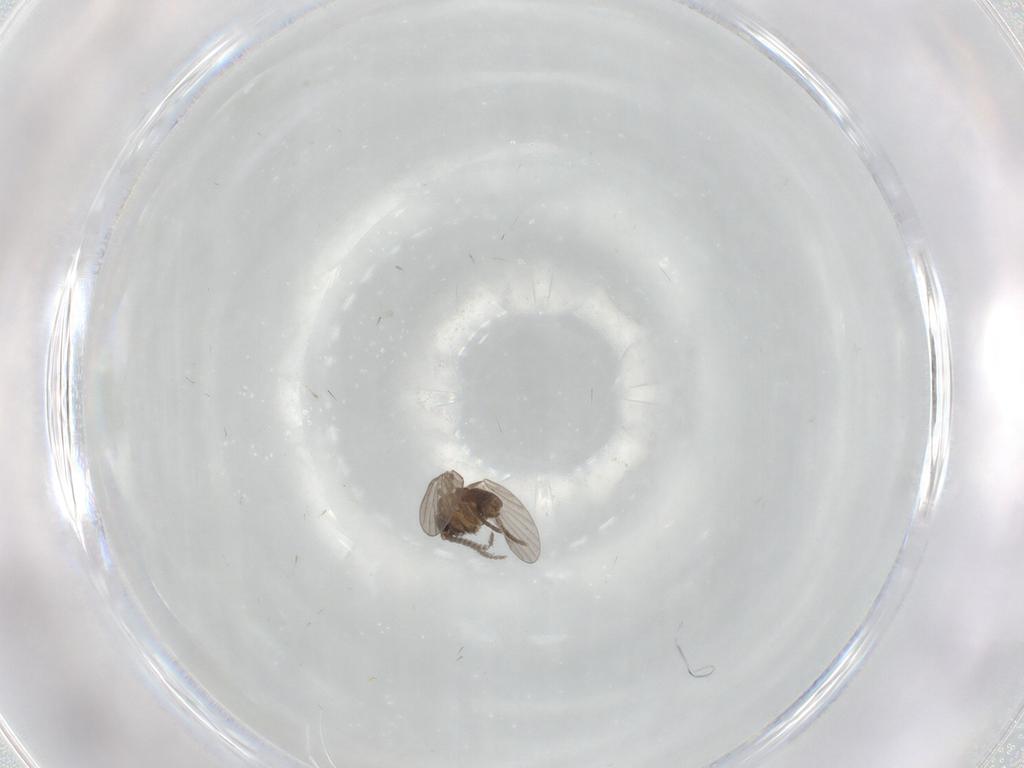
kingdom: Animalia
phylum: Arthropoda
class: Insecta
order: Diptera
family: Psychodidae
